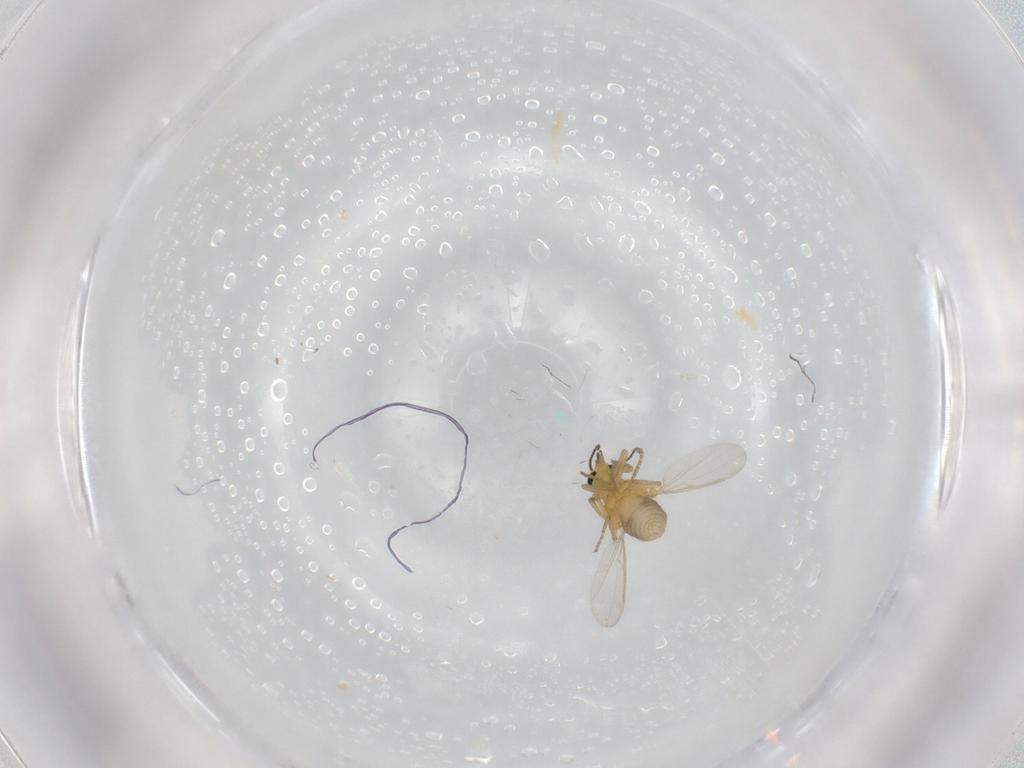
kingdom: Animalia
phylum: Arthropoda
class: Insecta
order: Diptera
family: Ceratopogonidae
